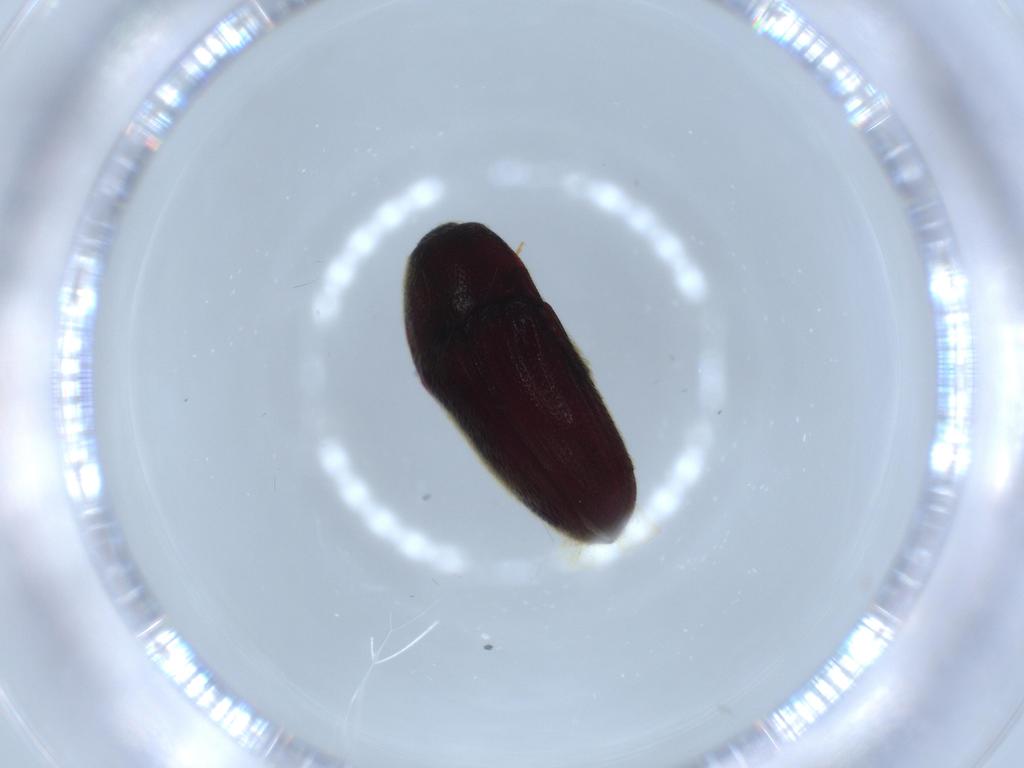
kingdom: Animalia
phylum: Arthropoda
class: Insecta
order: Coleoptera
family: Throscidae
